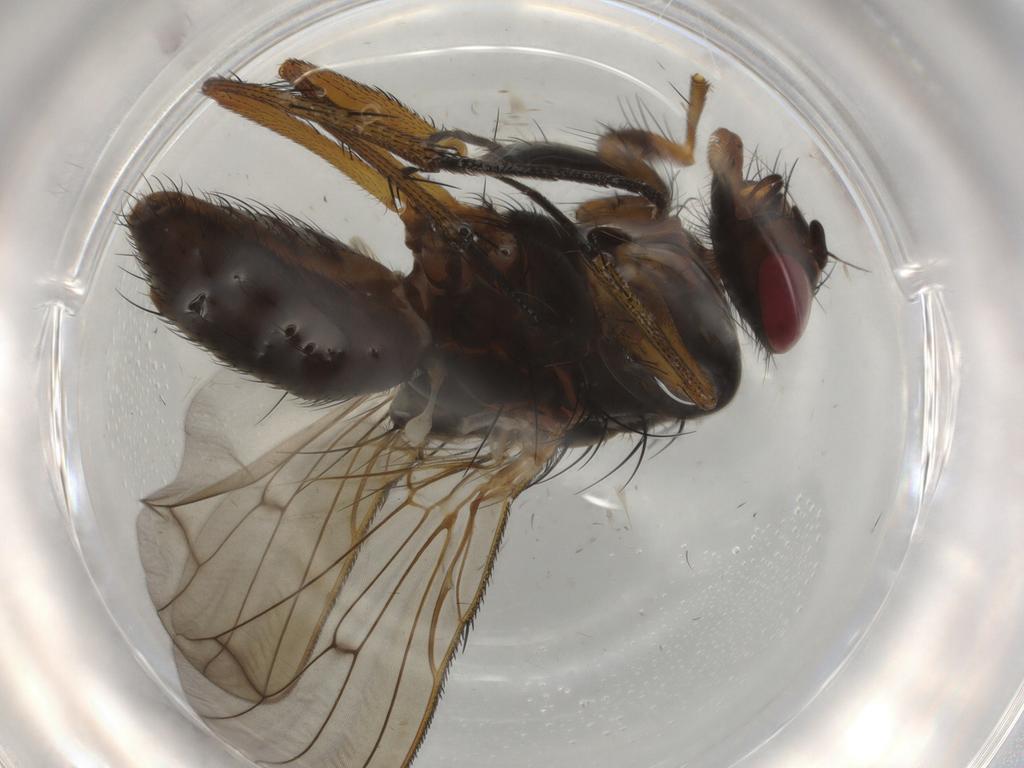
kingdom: Animalia
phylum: Arthropoda
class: Insecta
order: Diptera
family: Anthomyiidae
